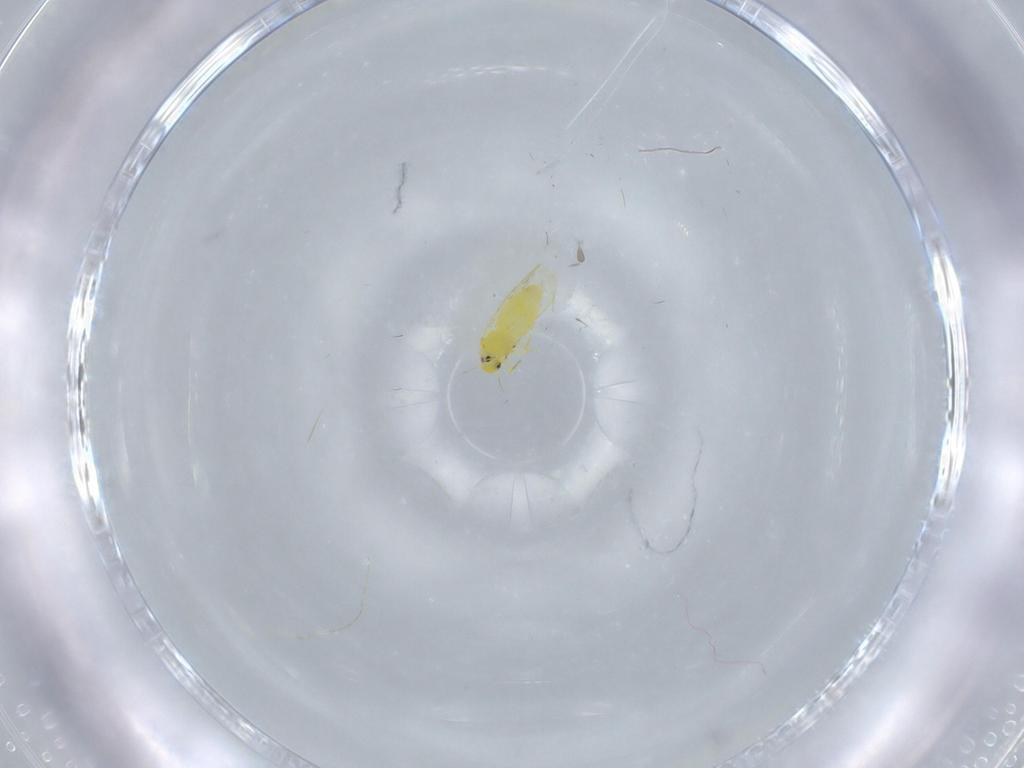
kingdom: Animalia
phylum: Arthropoda
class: Insecta
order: Hemiptera
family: Aleyrodidae
